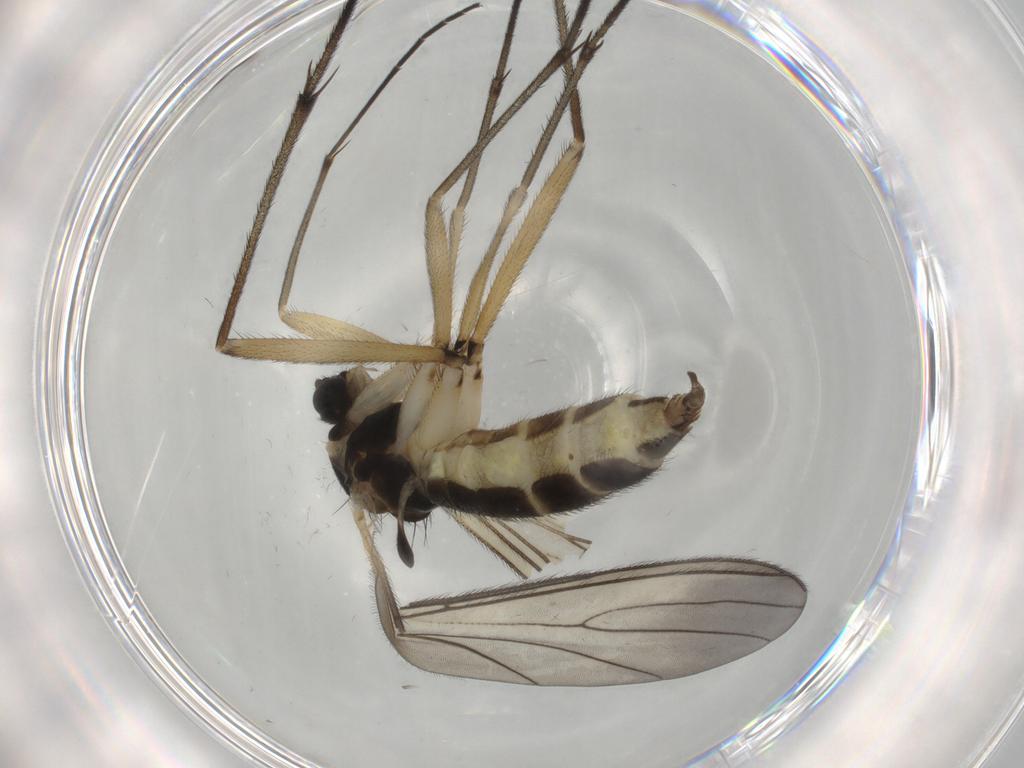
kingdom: Animalia
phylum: Arthropoda
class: Insecta
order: Diptera
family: Sciaridae
